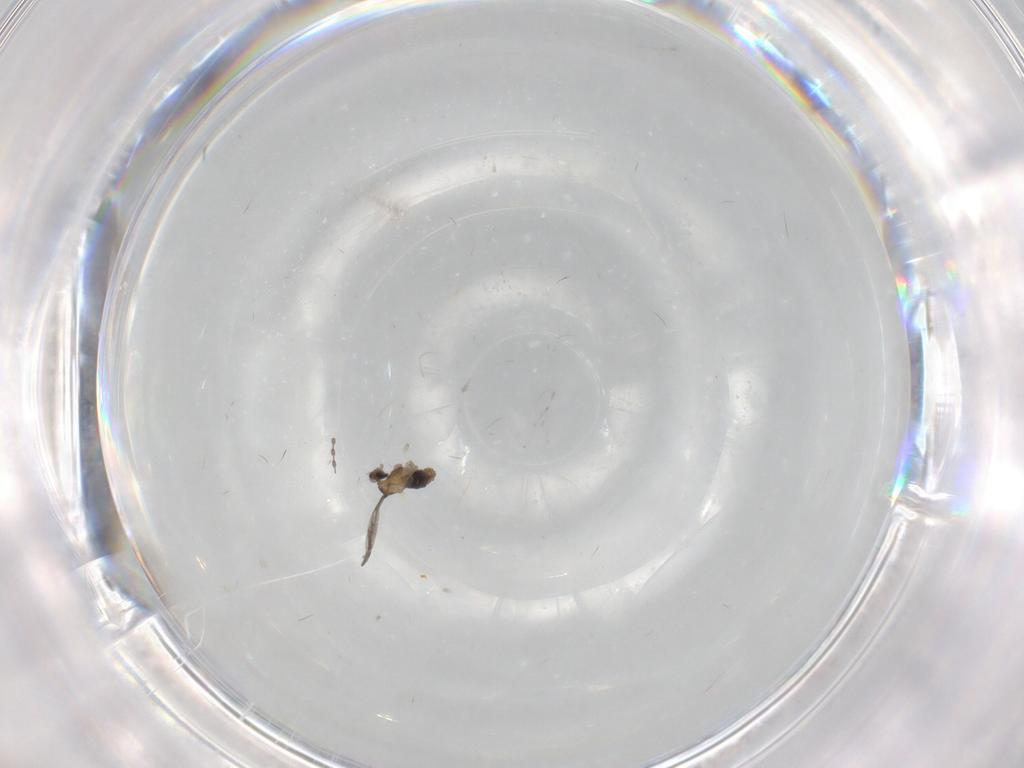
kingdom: Animalia
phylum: Arthropoda
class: Insecta
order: Diptera
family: Cecidomyiidae
